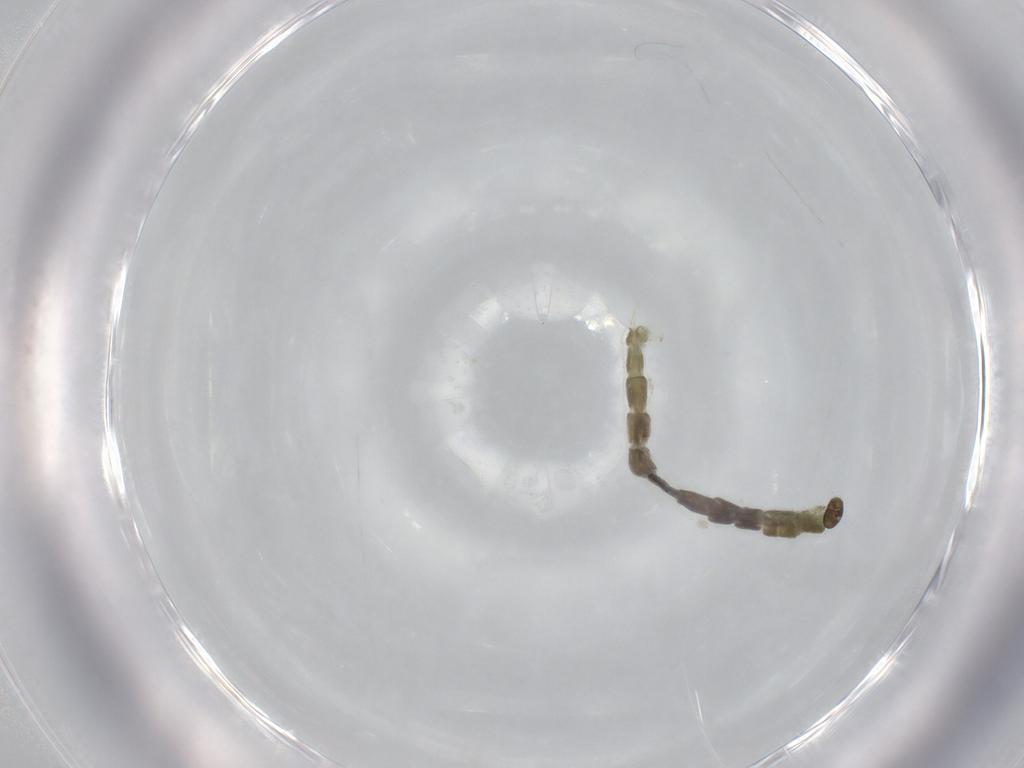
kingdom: Animalia
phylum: Arthropoda
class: Insecta
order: Diptera
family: Chironomidae
